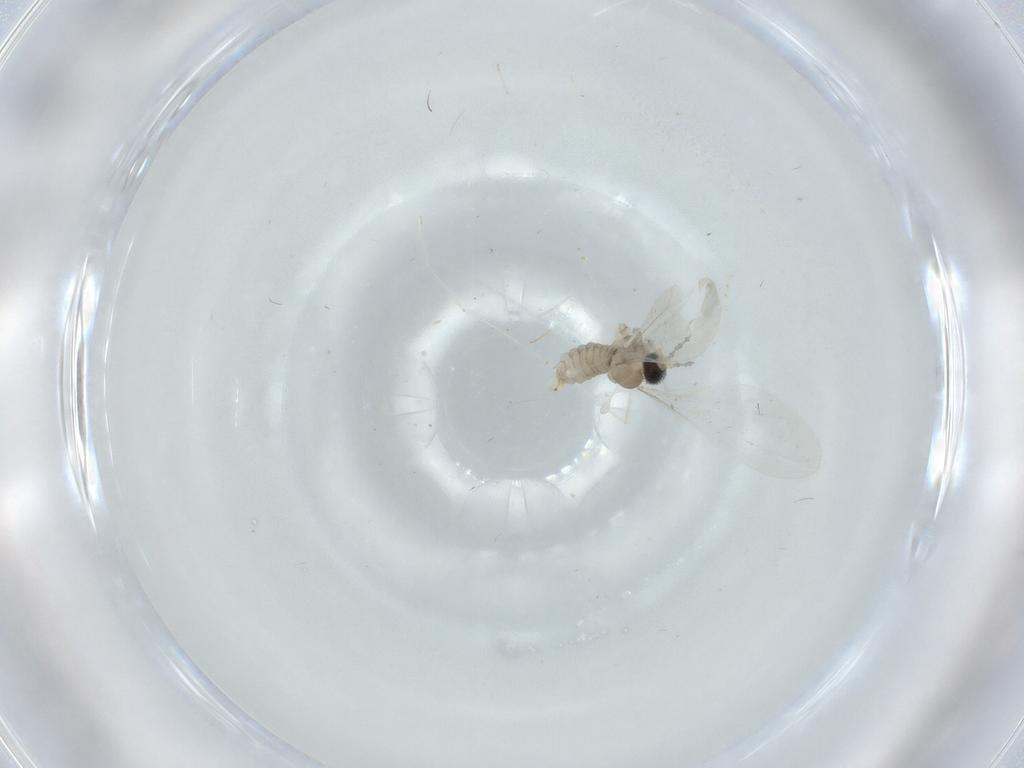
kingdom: Animalia
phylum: Arthropoda
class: Insecta
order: Diptera
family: Cecidomyiidae
